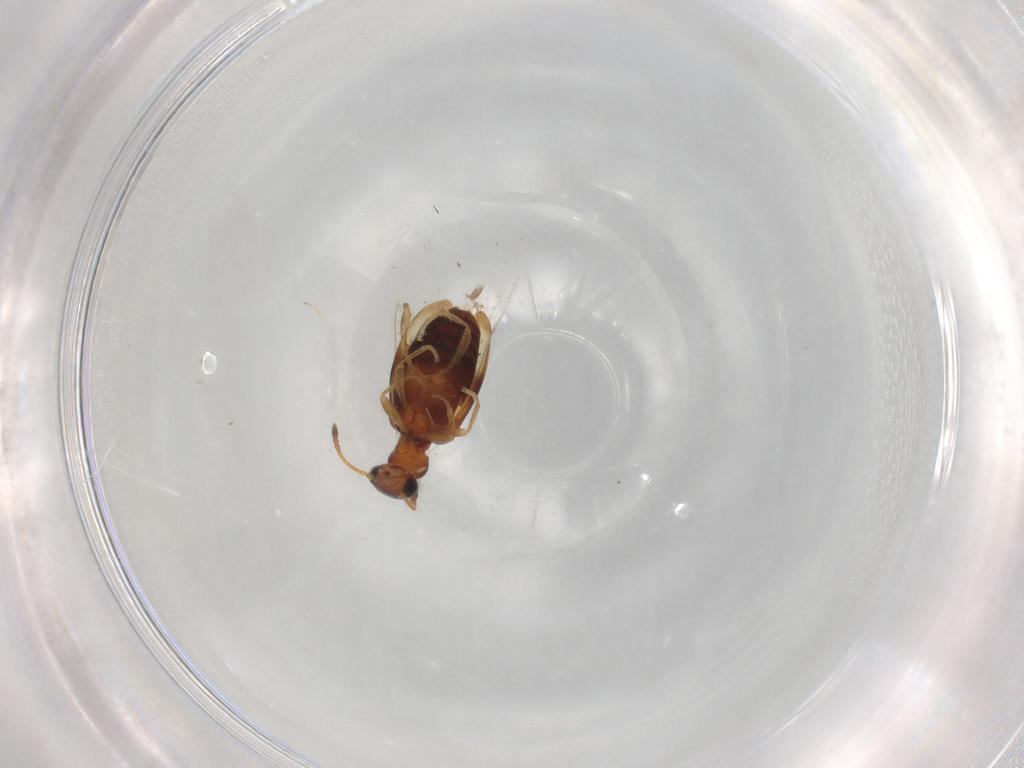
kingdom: Animalia
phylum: Arthropoda
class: Insecta
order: Coleoptera
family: Anthicidae
